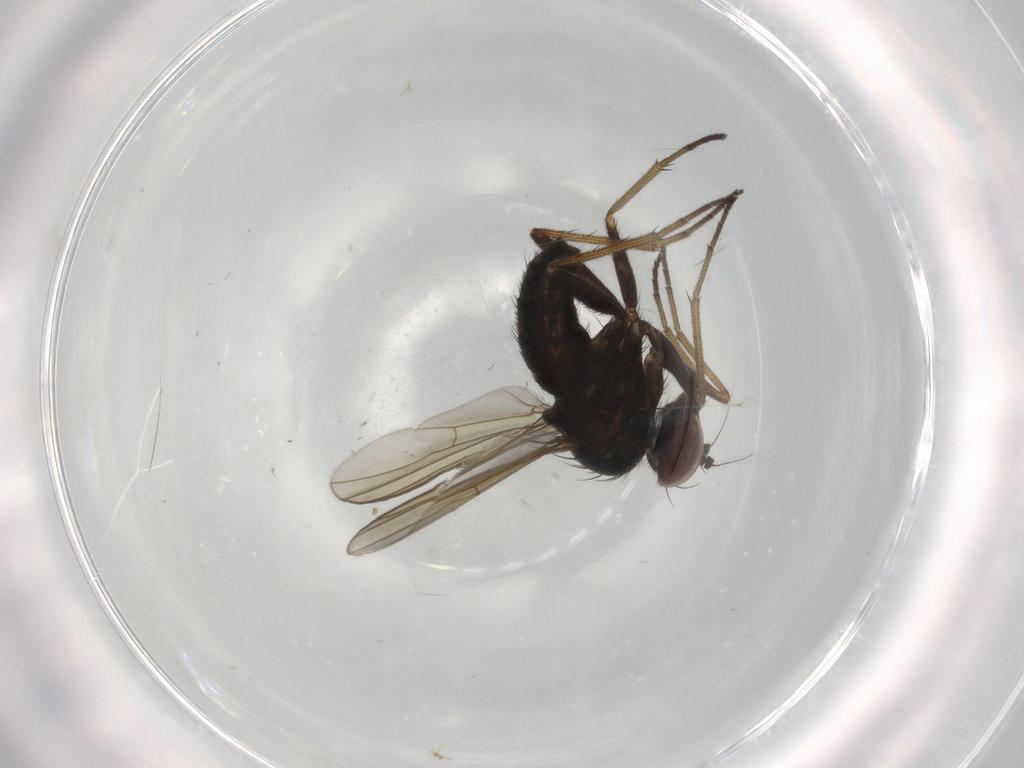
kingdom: Animalia
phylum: Arthropoda
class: Insecta
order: Diptera
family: Dolichopodidae
